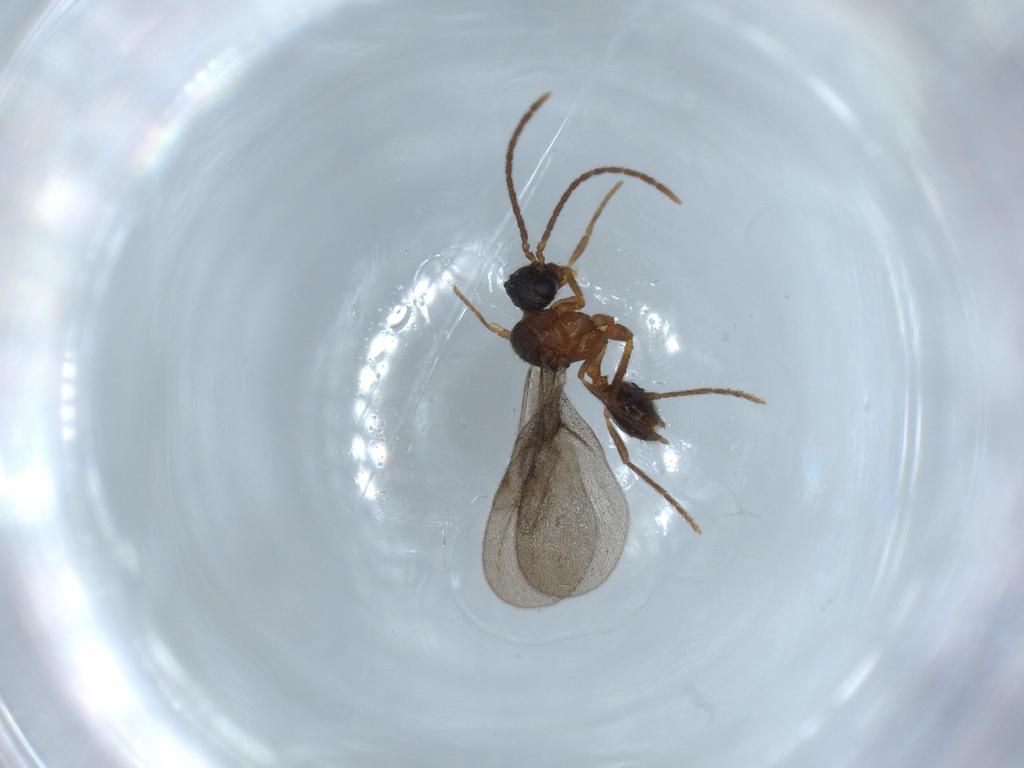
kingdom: Animalia
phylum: Arthropoda
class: Insecta
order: Hymenoptera
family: Formicidae
